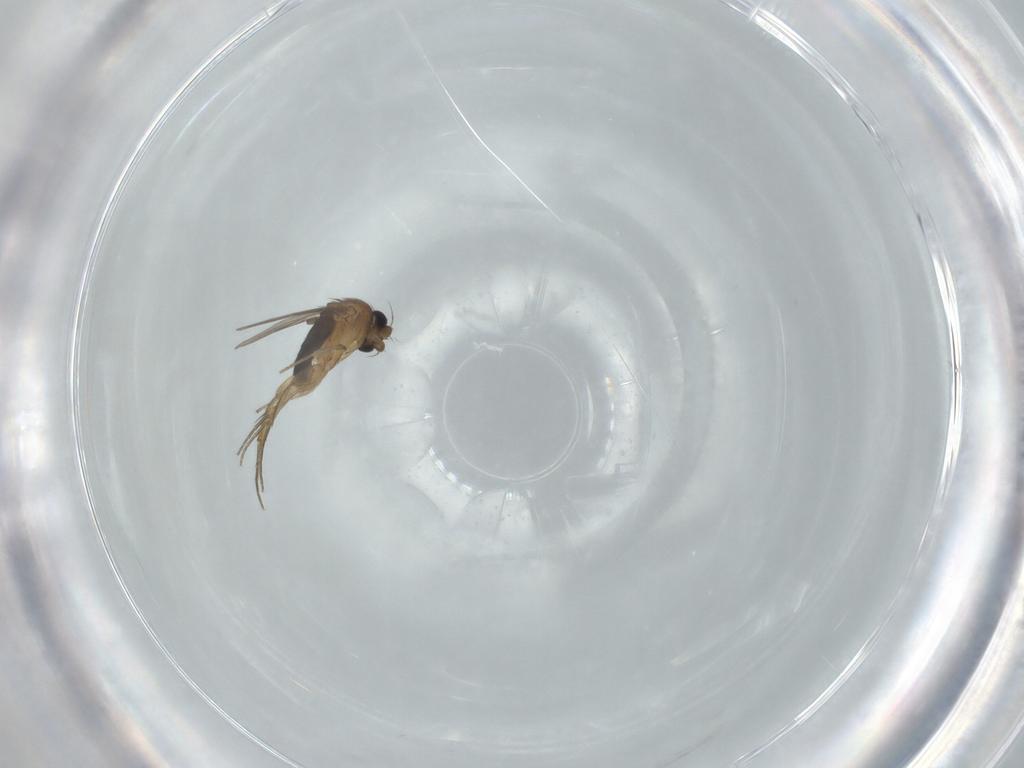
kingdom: Animalia
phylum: Arthropoda
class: Insecta
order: Diptera
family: Phoridae
